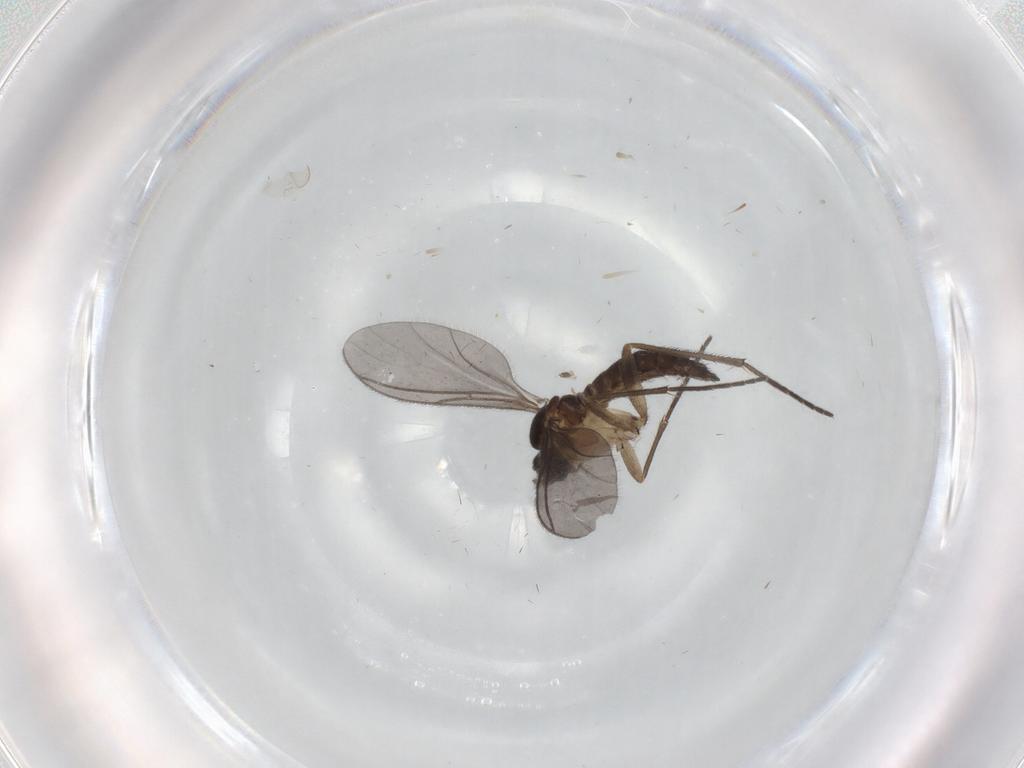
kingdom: Animalia
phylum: Arthropoda
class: Insecta
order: Diptera
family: Sciaridae
